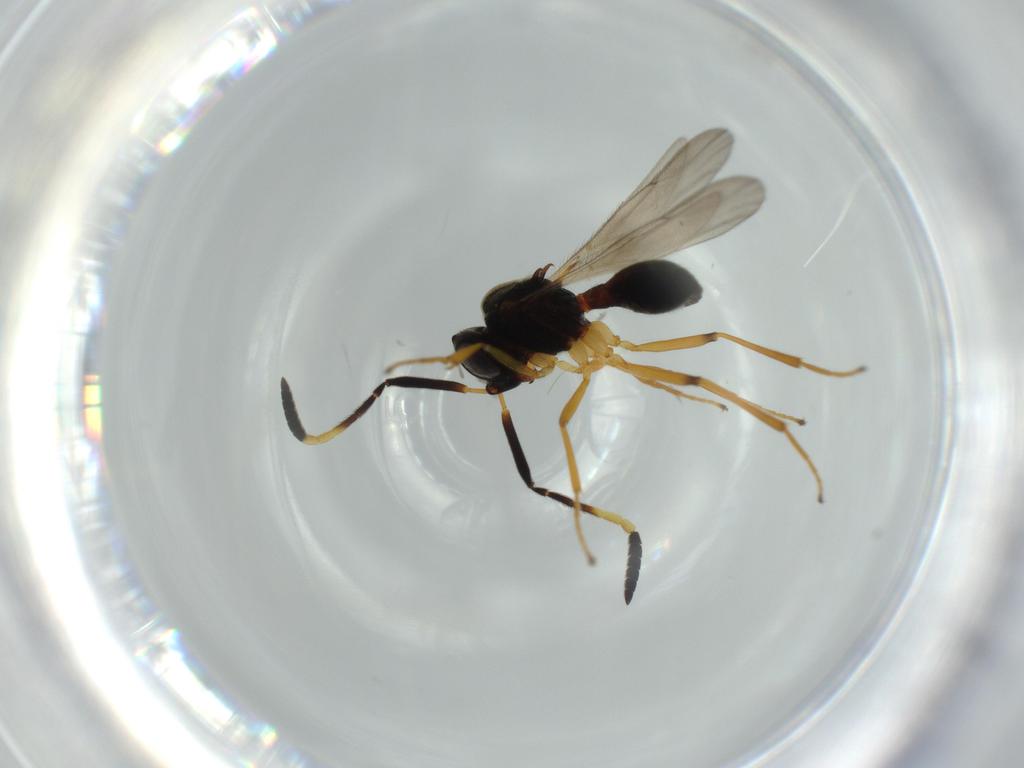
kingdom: Animalia
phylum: Arthropoda
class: Insecta
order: Hymenoptera
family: Scelionidae
